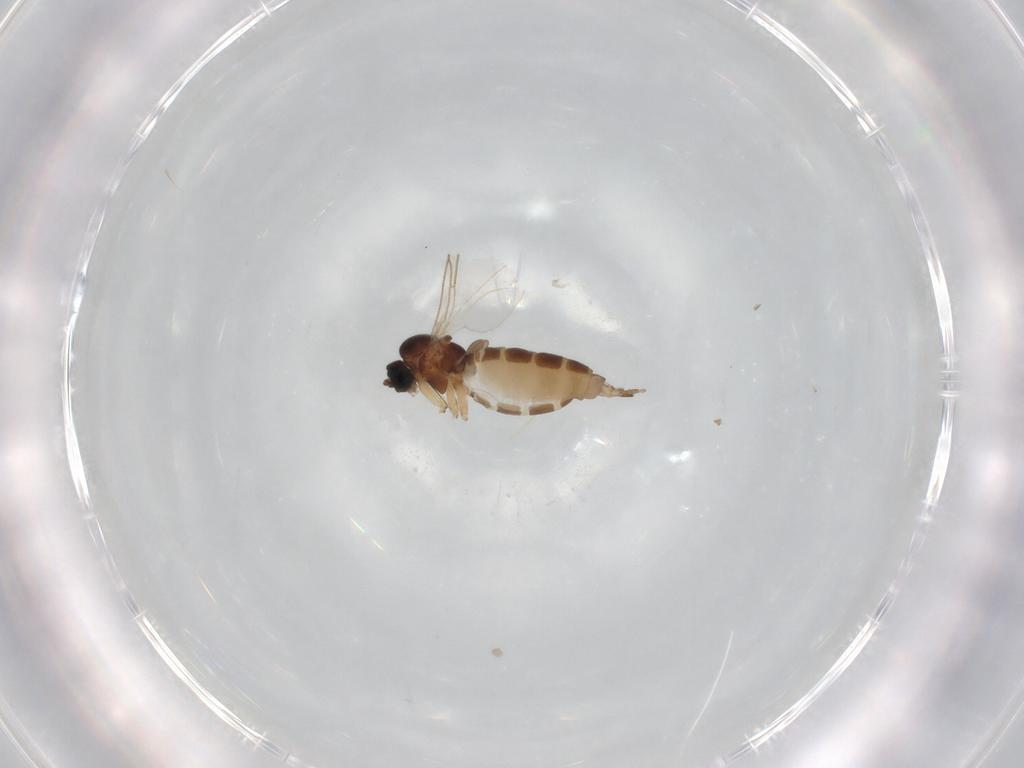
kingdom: Animalia
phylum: Arthropoda
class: Insecta
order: Diptera
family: Sciaridae
